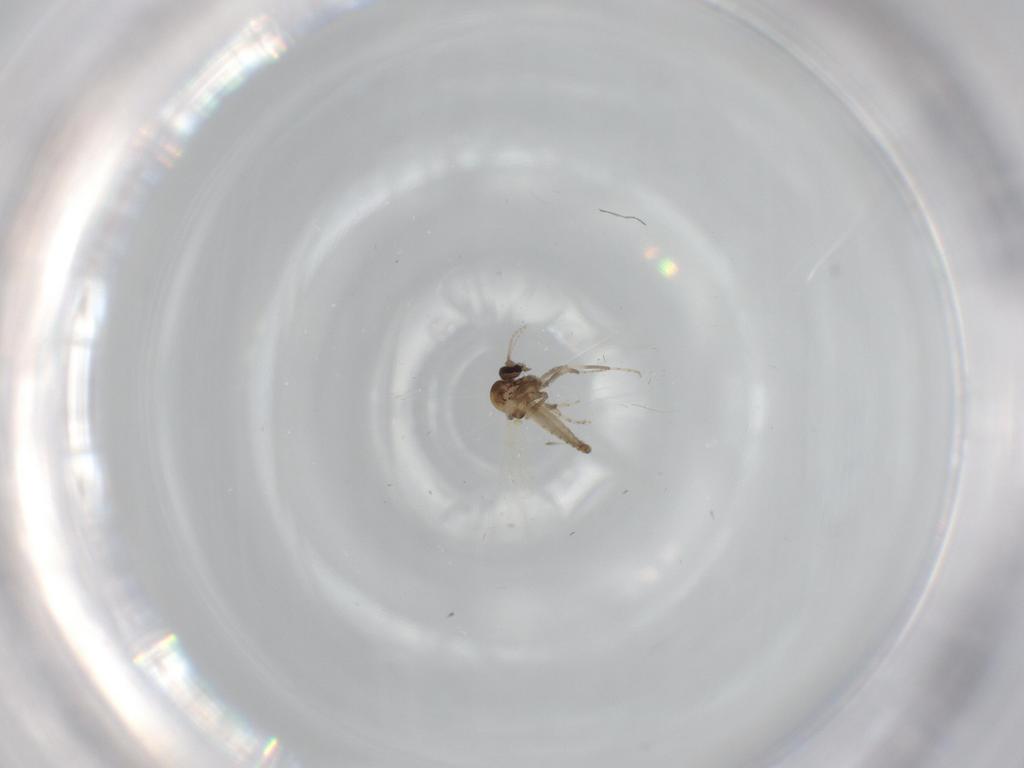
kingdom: Animalia
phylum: Arthropoda
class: Insecta
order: Diptera
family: Ceratopogonidae
